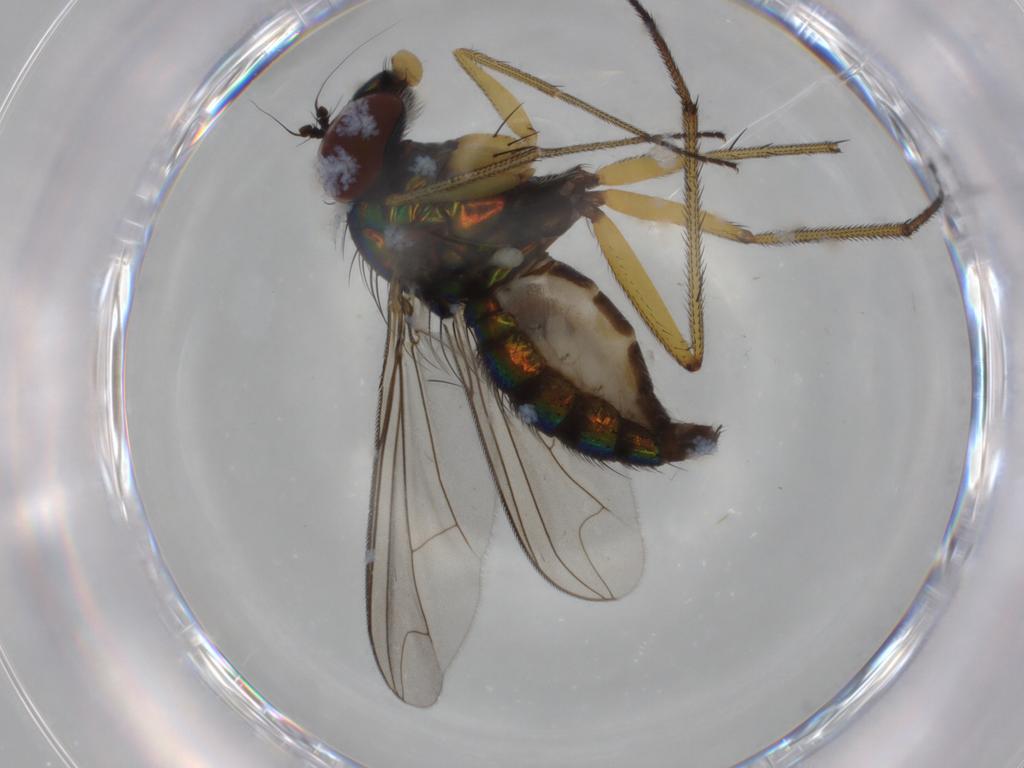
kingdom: Animalia
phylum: Arthropoda
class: Insecta
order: Diptera
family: Dolichopodidae
